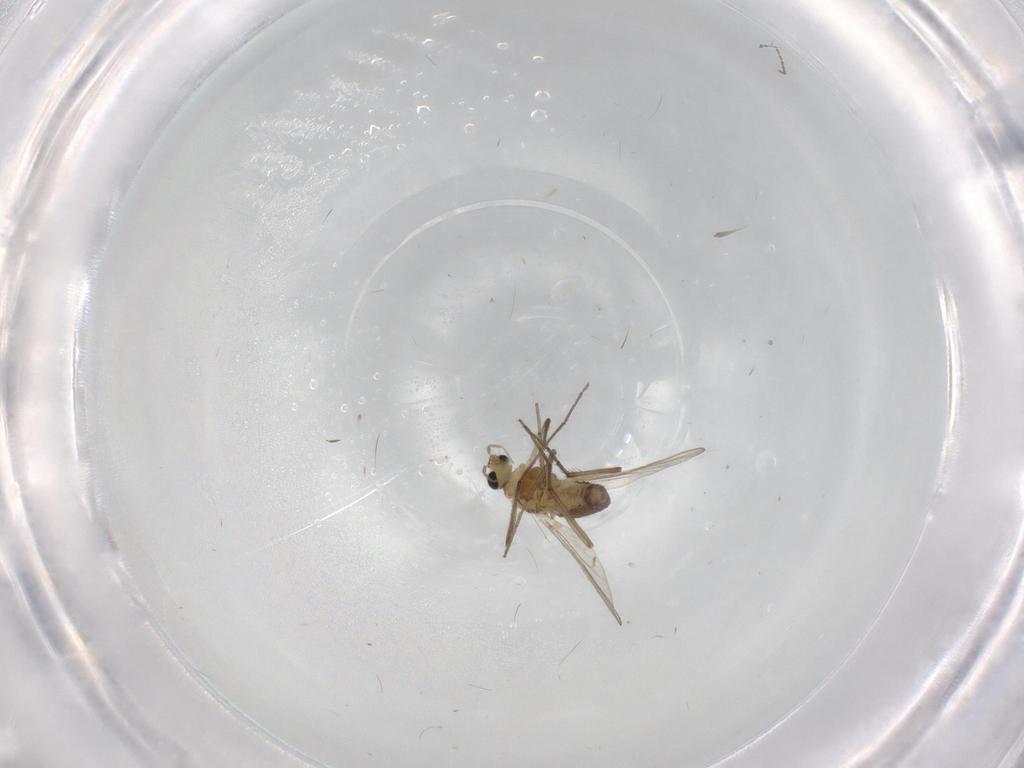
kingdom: Animalia
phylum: Arthropoda
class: Insecta
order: Diptera
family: Chironomidae
